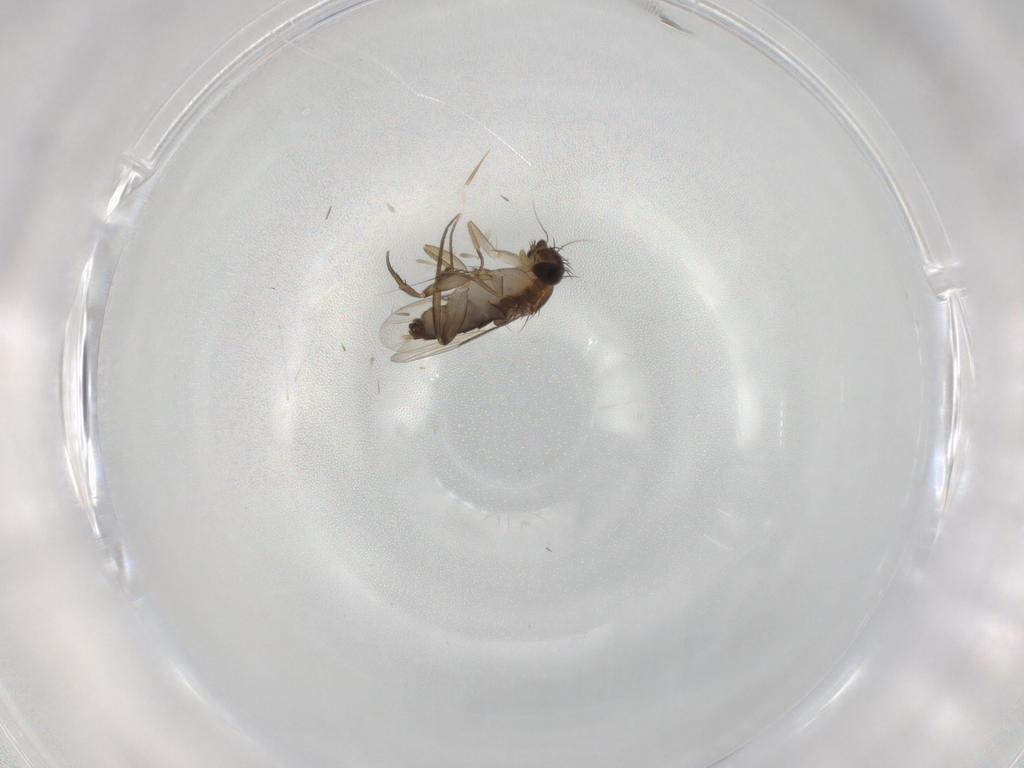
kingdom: Animalia
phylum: Arthropoda
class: Insecta
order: Diptera
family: Phoridae
